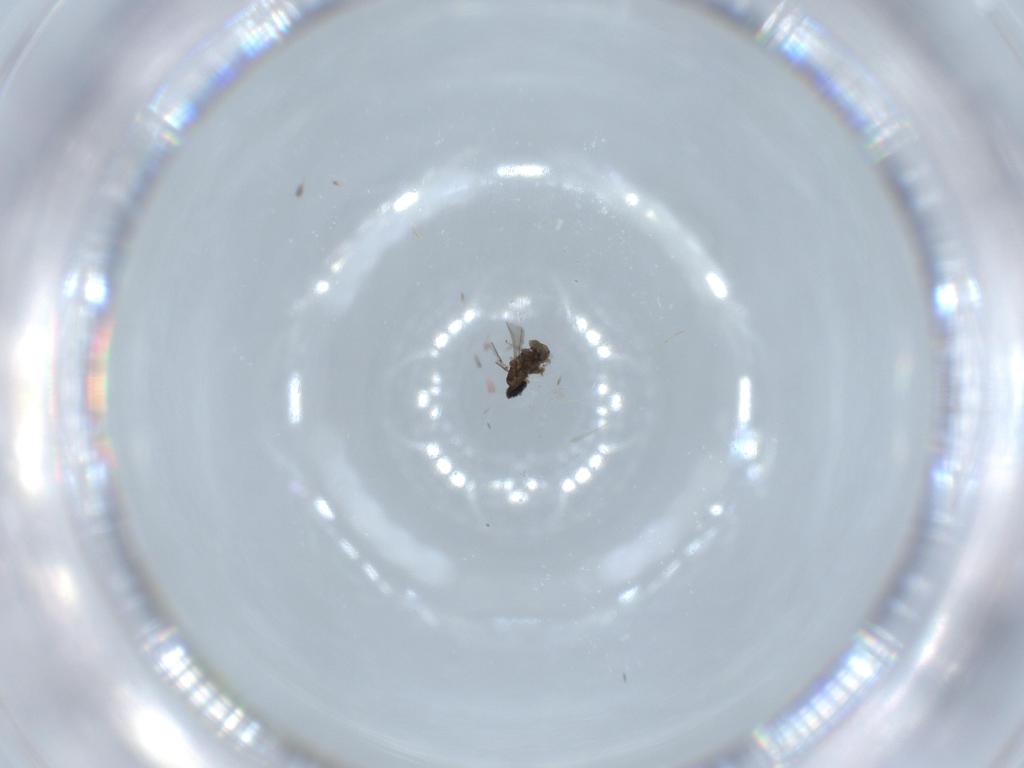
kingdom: Animalia
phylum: Arthropoda
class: Insecta
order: Diptera
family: Cecidomyiidae
